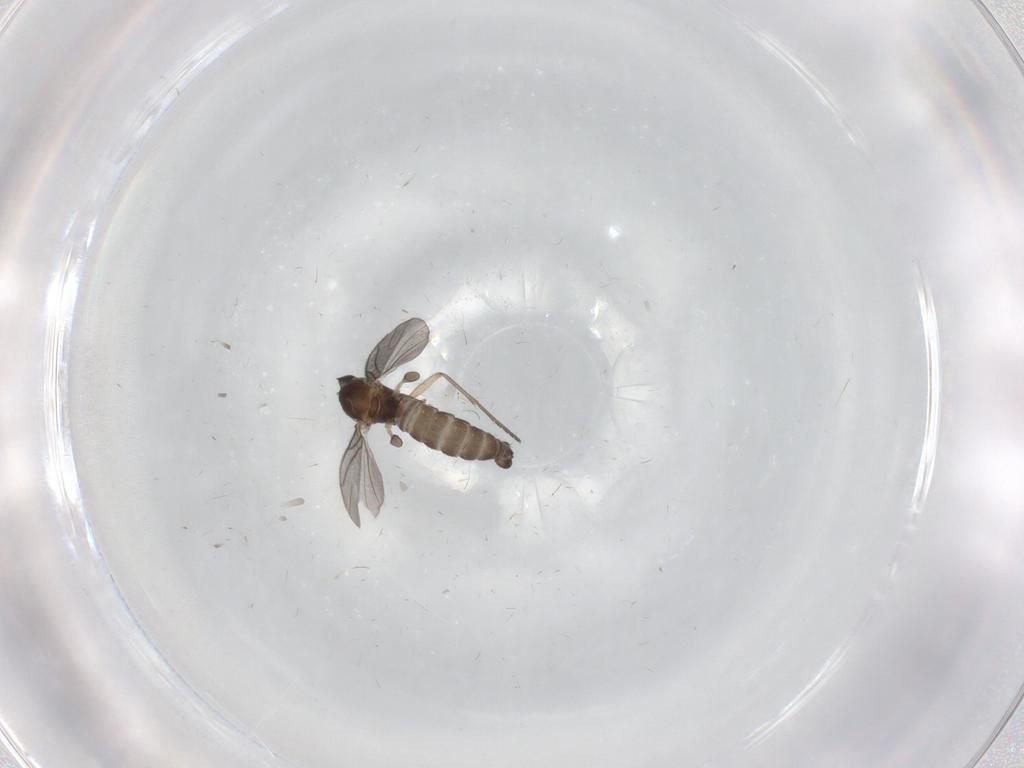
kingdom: Animalia
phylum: Arthropoda
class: Insecta
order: Diptera
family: Sciaridae
